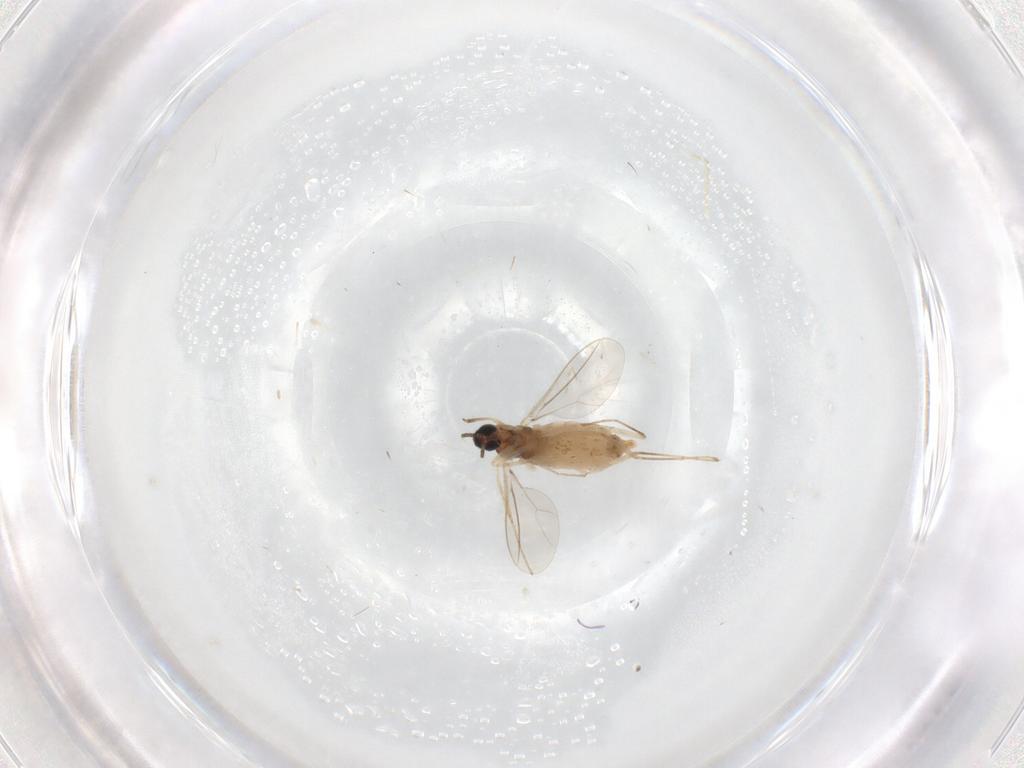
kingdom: Animalia
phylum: Arthropoda
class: Insecta
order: Diptera
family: Cecidomyiidae
